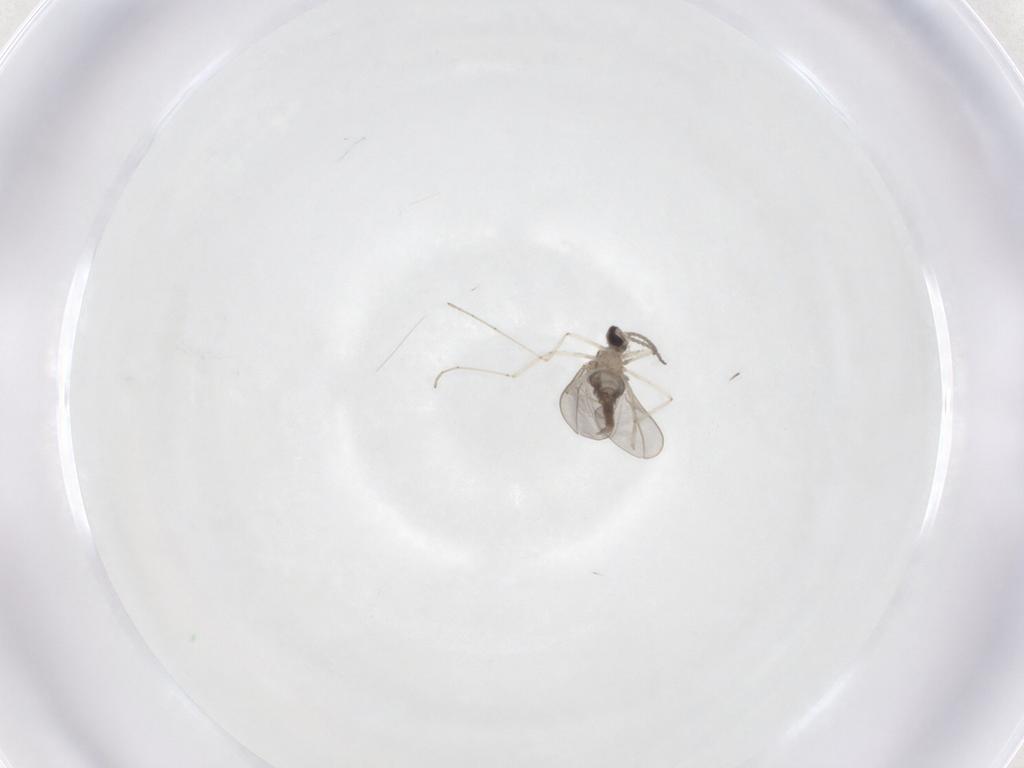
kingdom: Animalia
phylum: Arthropoda
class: Insecta
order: Diptera
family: Cecidomyiidae
